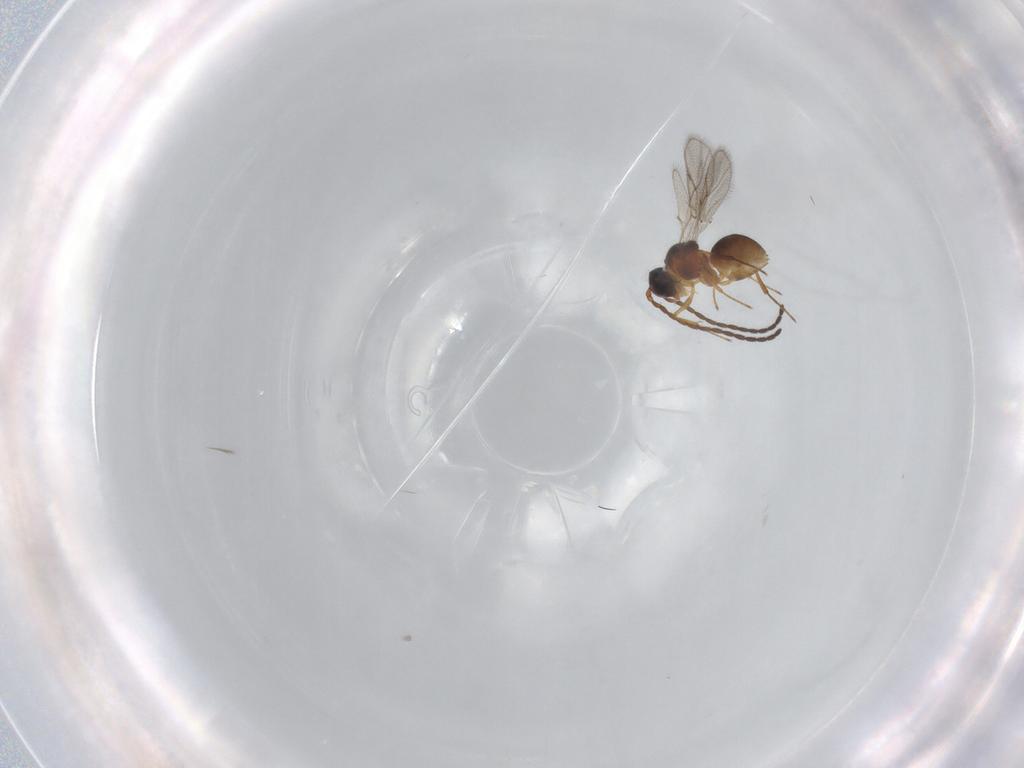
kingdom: Animalia
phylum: Arthropoda
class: Insecta
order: Hymenoptera
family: Figitidae
